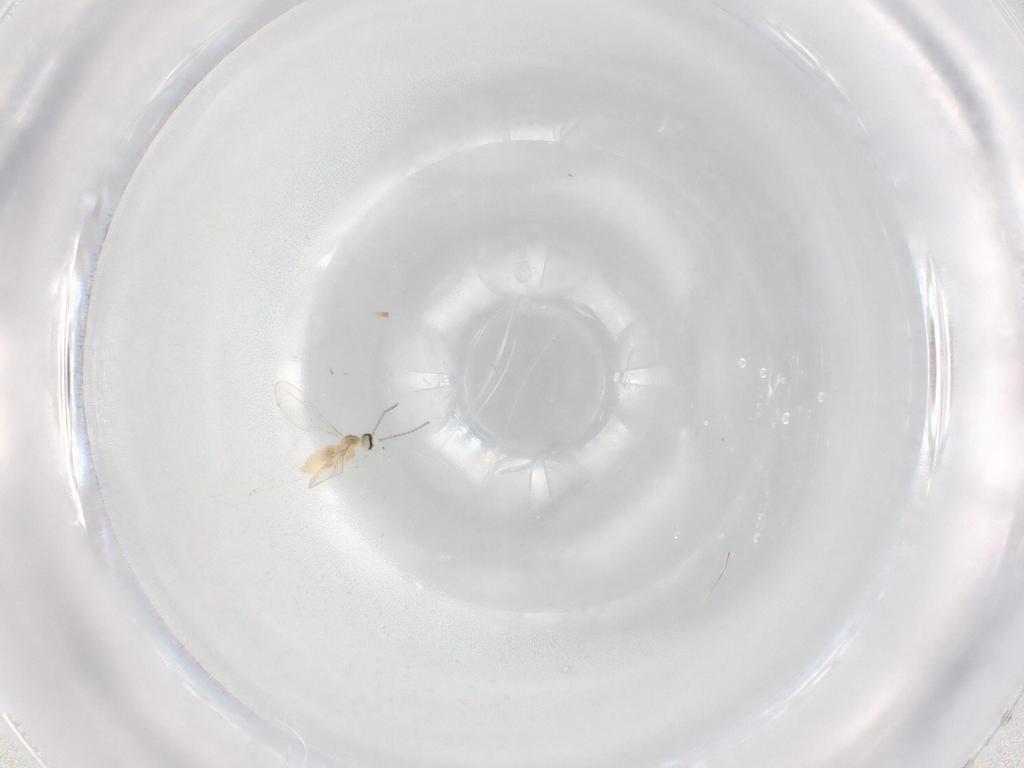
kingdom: Animalia
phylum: Arthropoda
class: Insecta
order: Diptera
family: Cecidomyiidae
